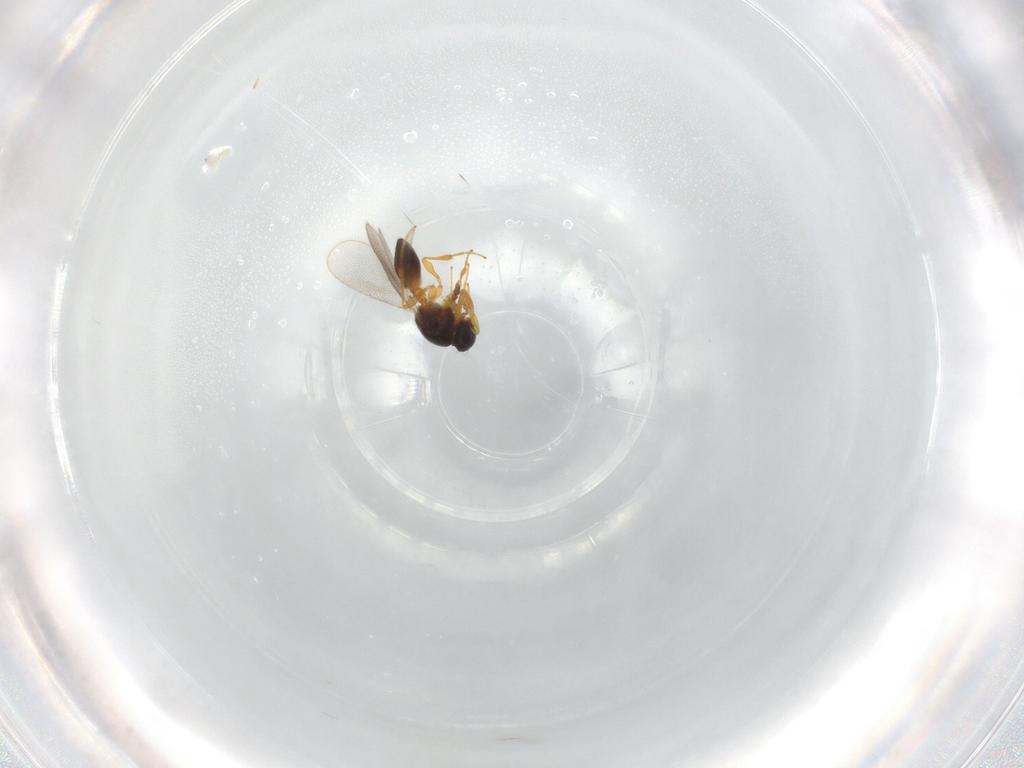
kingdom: Animalia
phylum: Arthropoda
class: Insecta
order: Hymenoptera
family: Platygastridae
